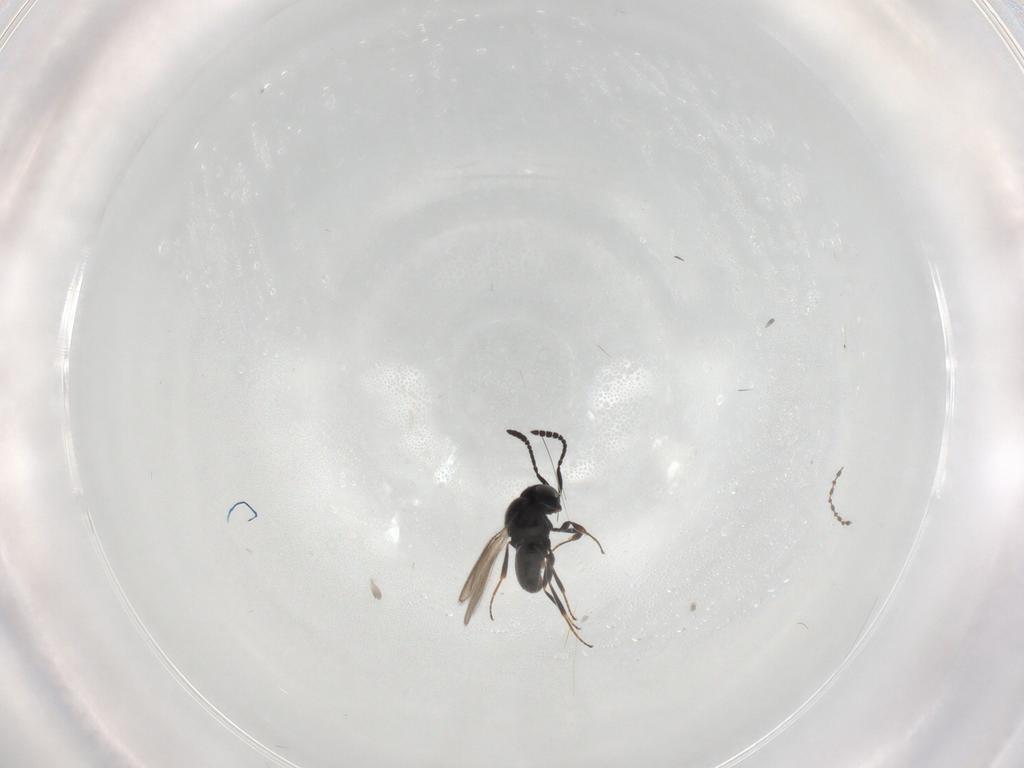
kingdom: Animalia
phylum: Arthropoda
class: Insecta
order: Hymenoptera
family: Scelionidae
